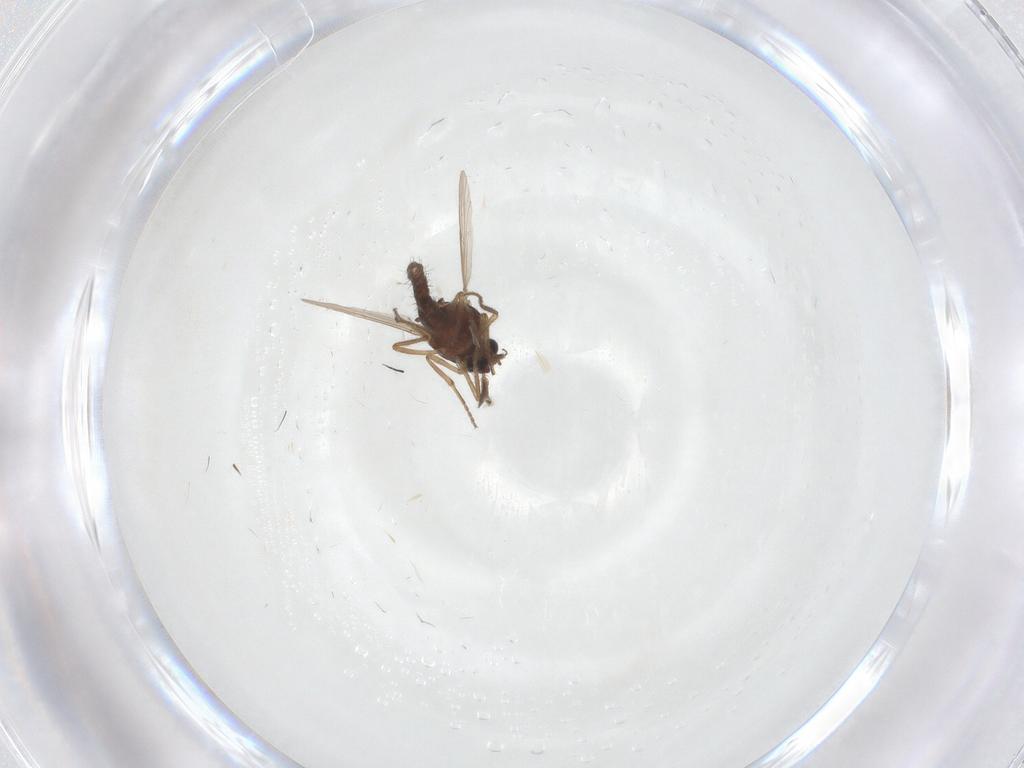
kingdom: Animalia
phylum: Arthropoda
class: Insecta
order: Diptera
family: Ceratopogonidae
